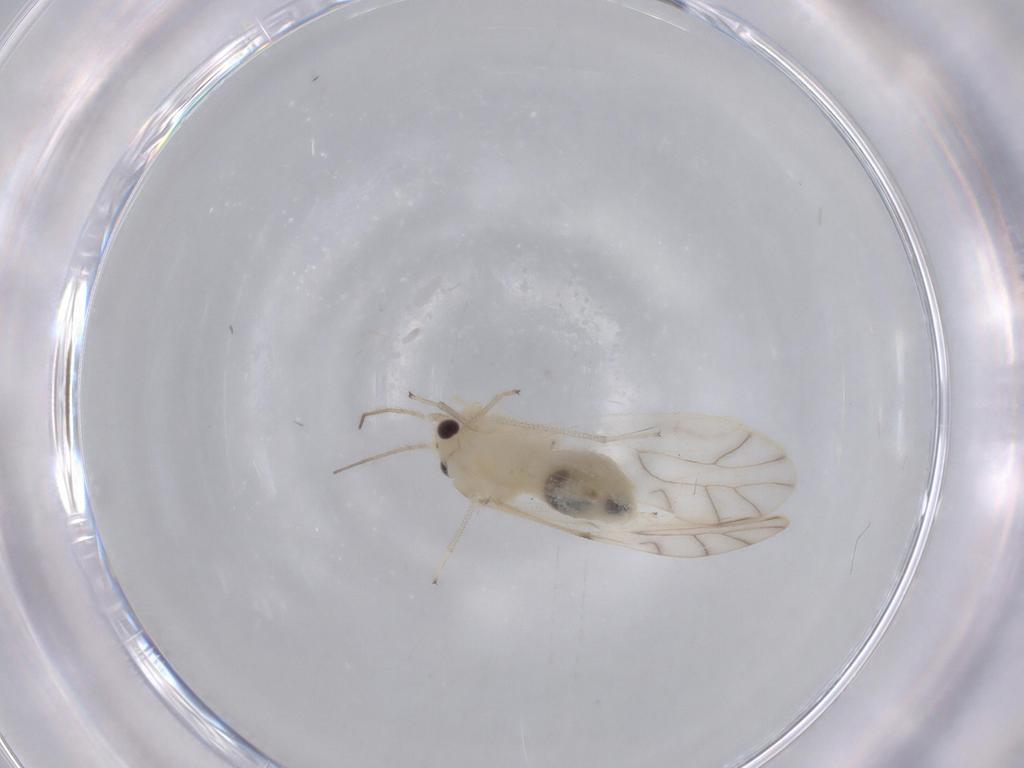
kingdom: Animalia
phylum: Arthropoda
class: Insecta
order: Psocodea
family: Caeciliusidae
